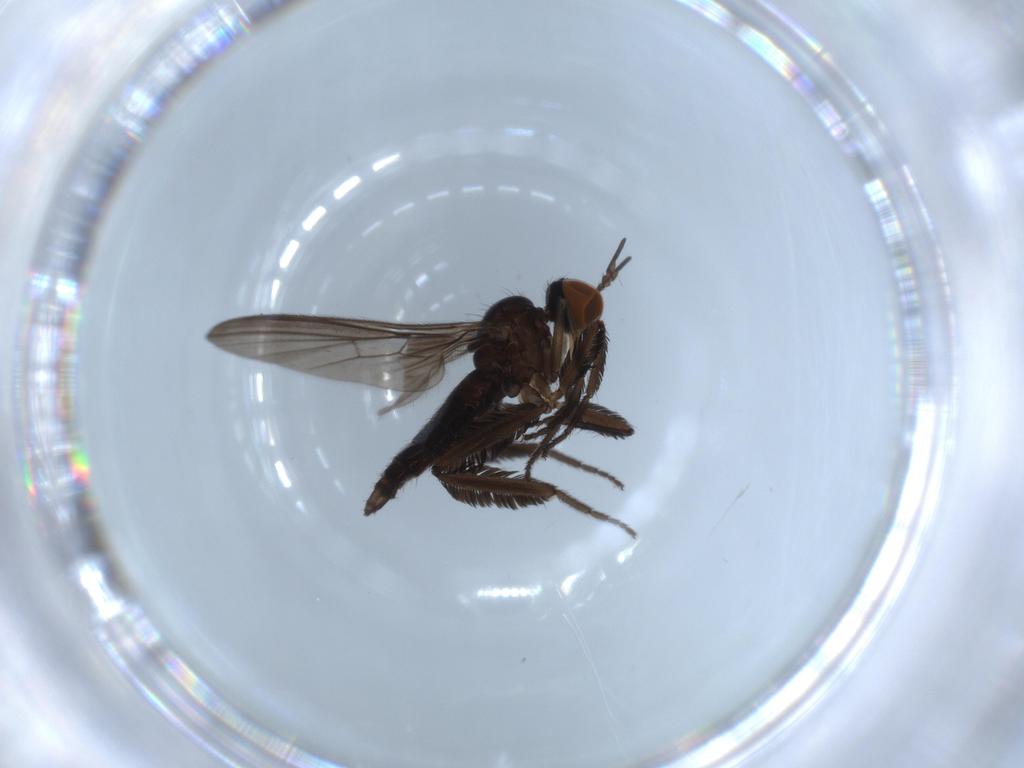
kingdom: Animalia
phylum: Arthropoda
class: Insecta
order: Diptera
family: Empididae
